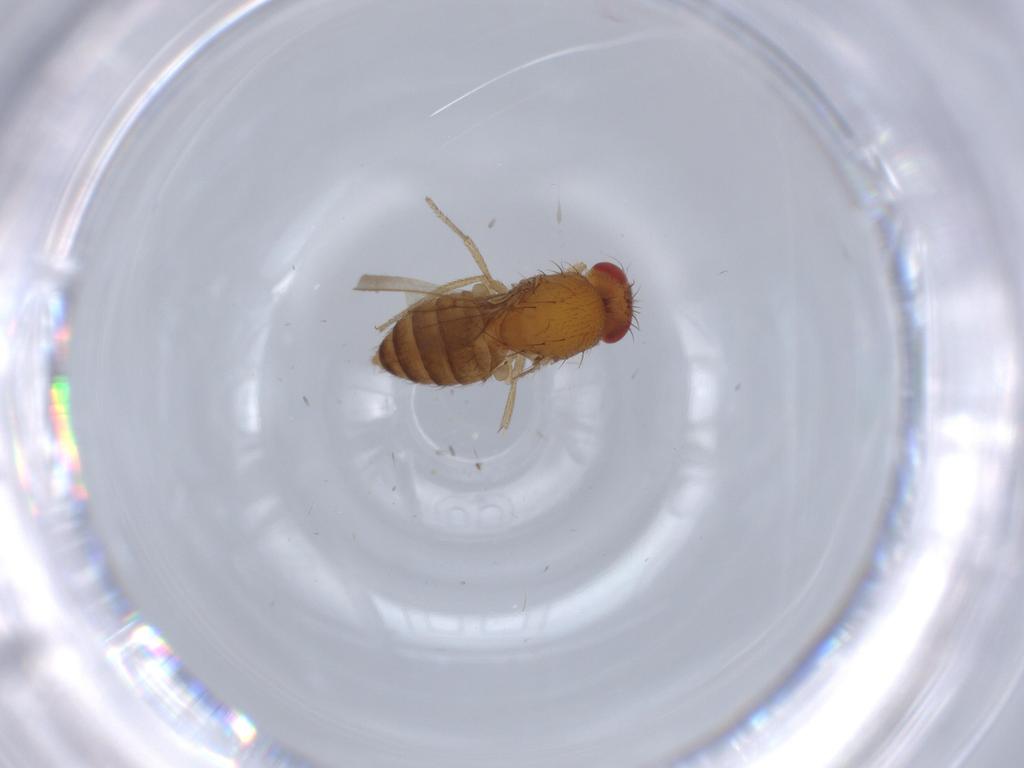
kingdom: Animalia
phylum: Arthropoda
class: Insecta
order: Diptera
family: Drosophilidae
